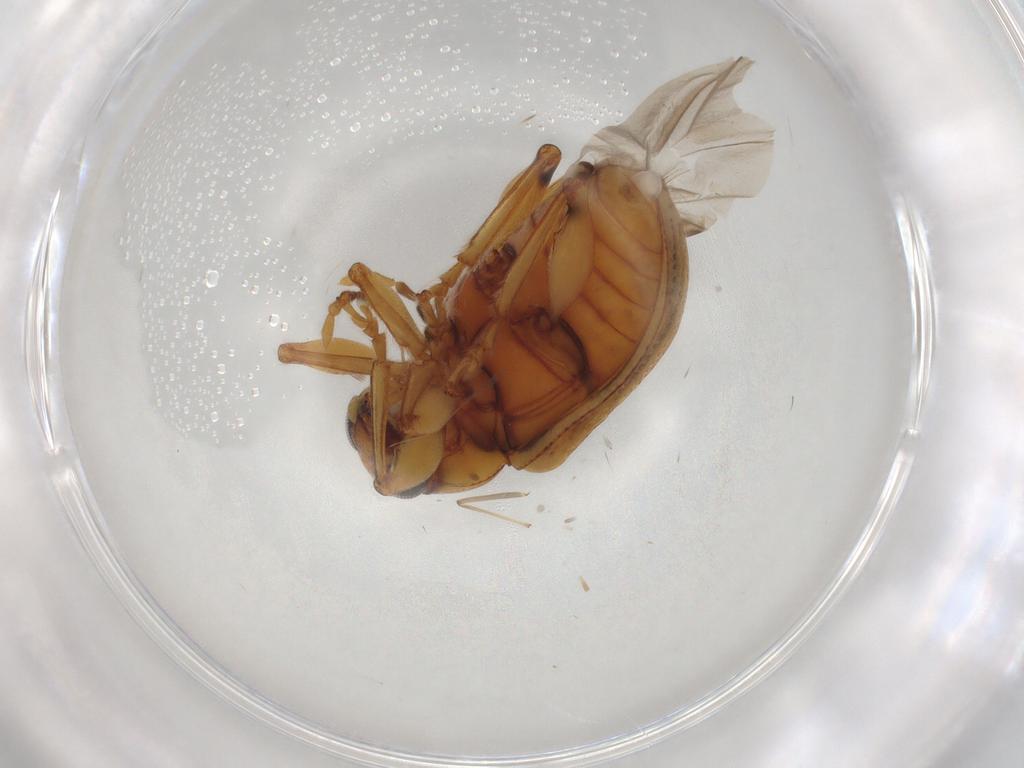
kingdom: Animalia
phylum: Arthropoda
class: Insecta
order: Coleoptera
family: Chrysomelidae
